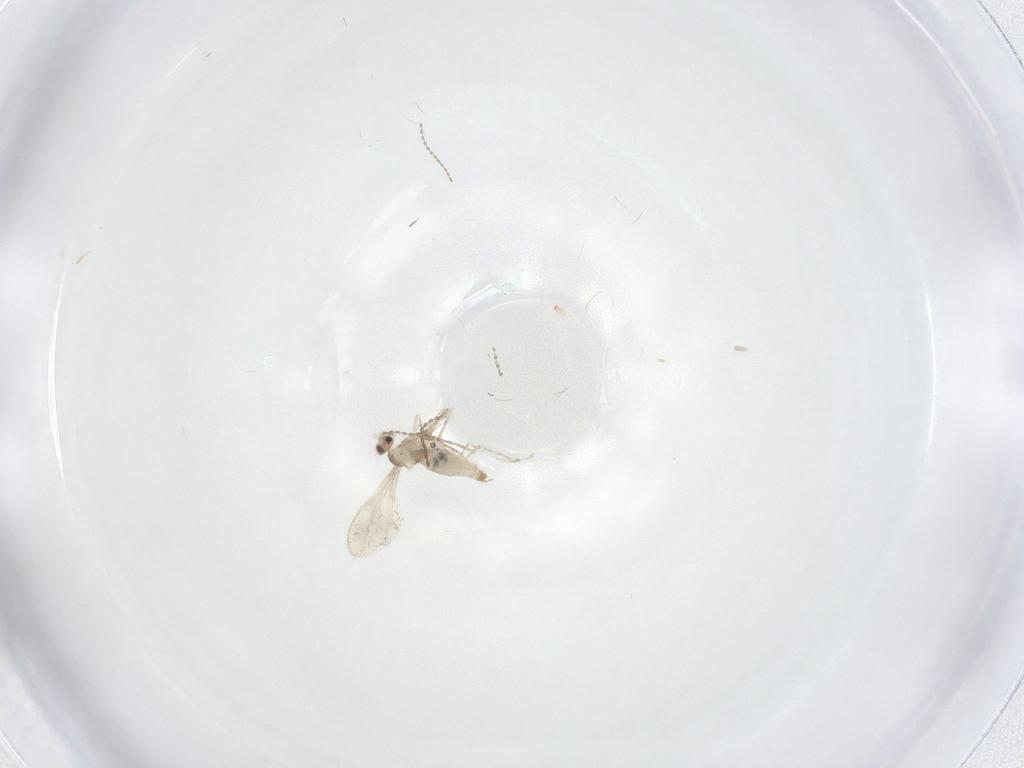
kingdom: Animalia
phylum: Arthropoda
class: Insecta
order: Diptera
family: Cecidomyiidae
